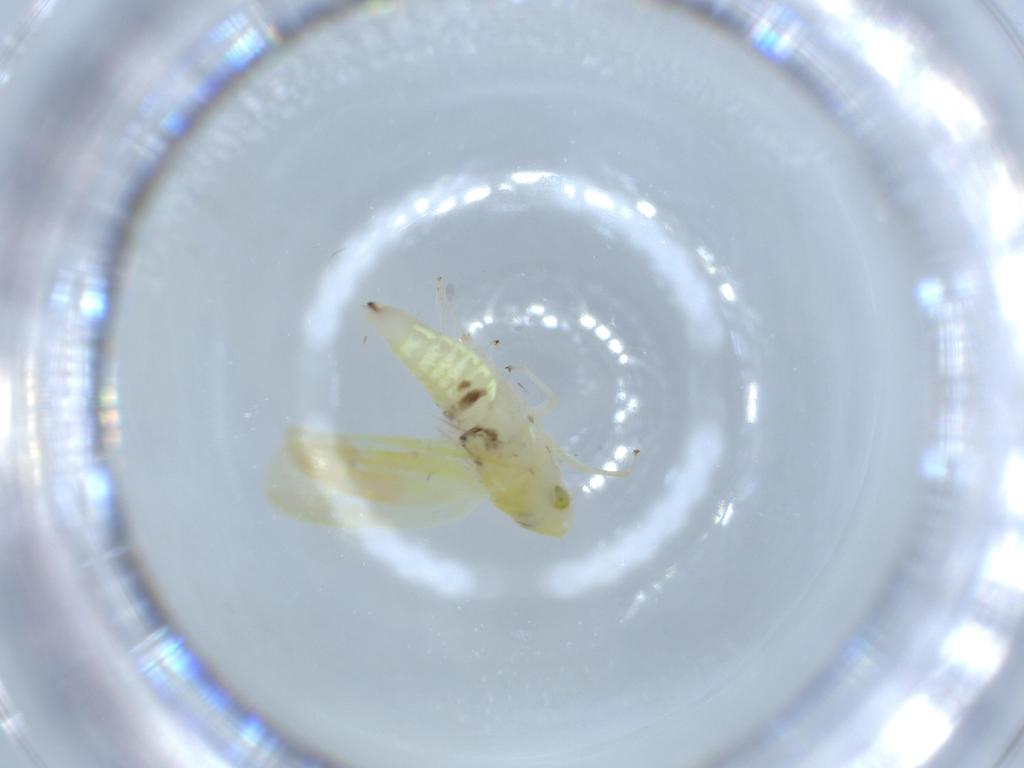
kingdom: Animalia
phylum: Arthropoda
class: Insecta
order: Hemiptera
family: Cicadellidae
